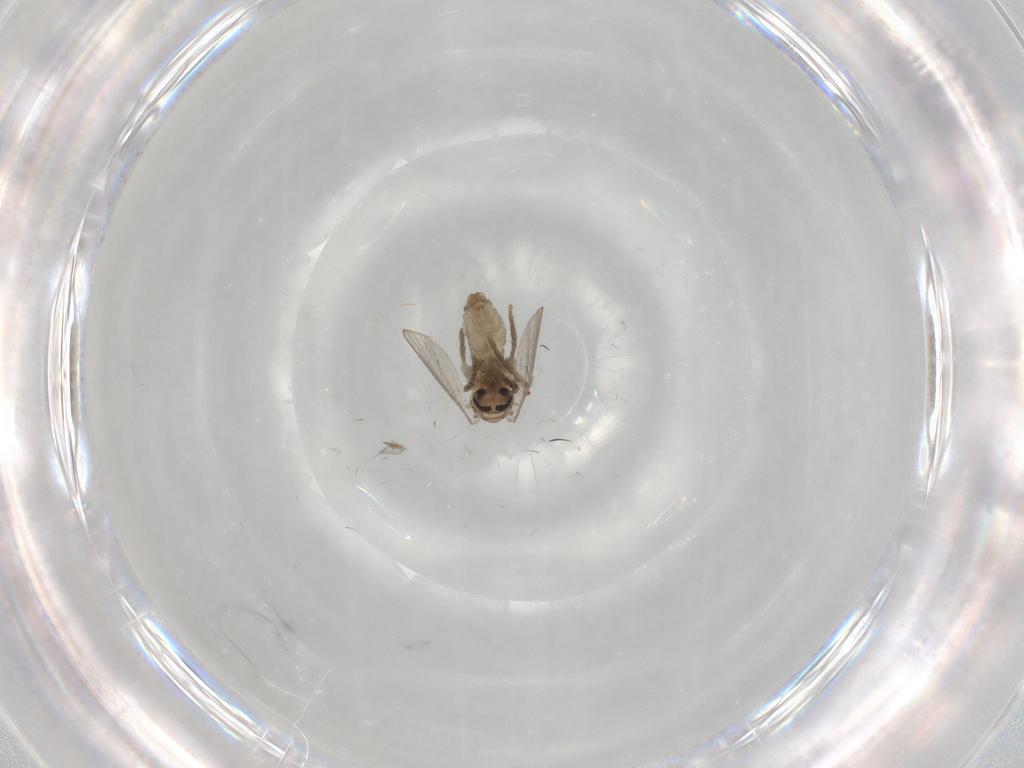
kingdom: Animalia
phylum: Arthropoda
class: Insecta
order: Diptera
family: Psychodidae
